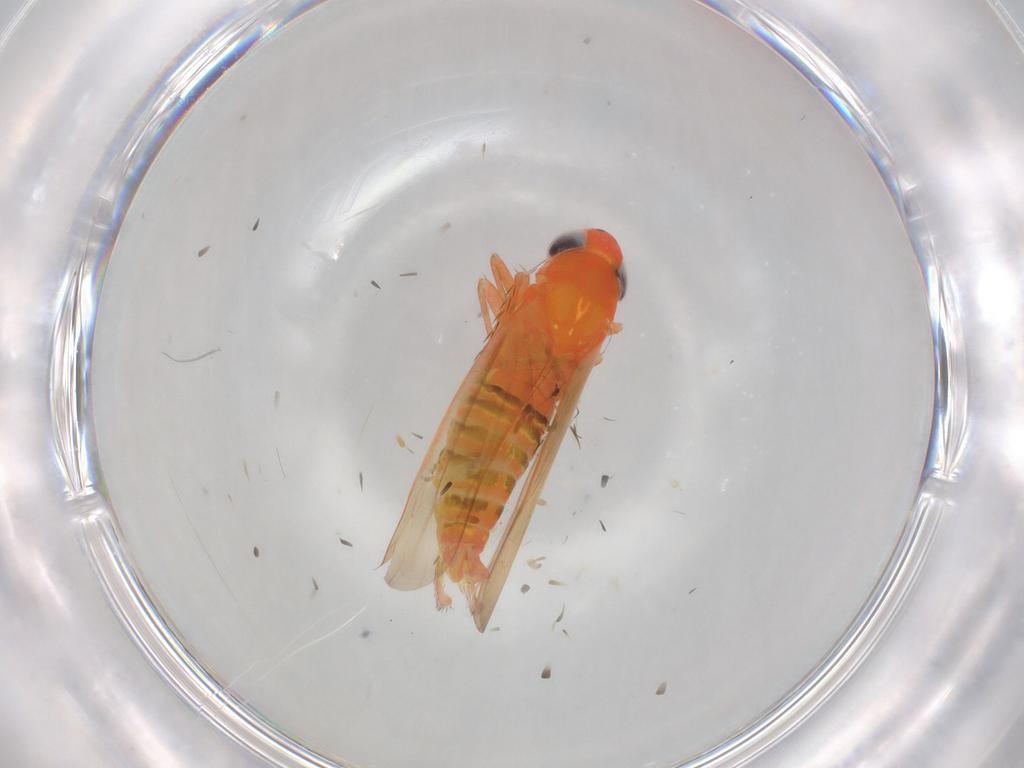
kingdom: Animalia
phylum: Arthropoda
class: Insecta
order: Hemiptera
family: Cicadellidae
